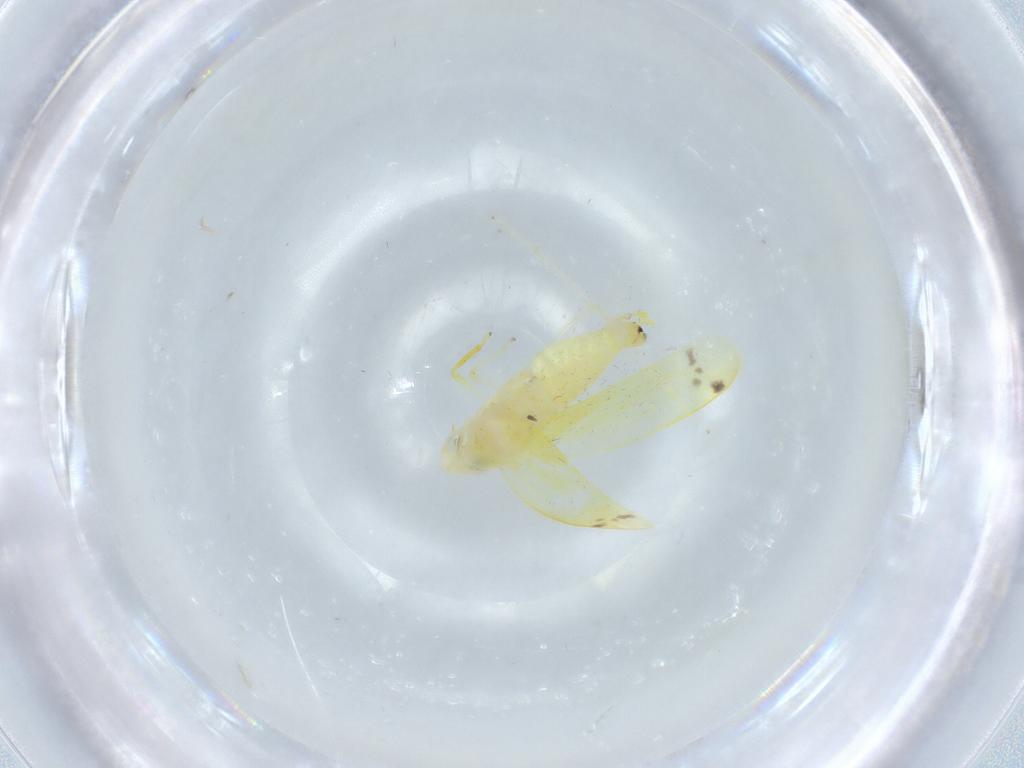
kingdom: Animalia
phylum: Arthropoda
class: Insecta
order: Hemiptera
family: Cicadellidae
